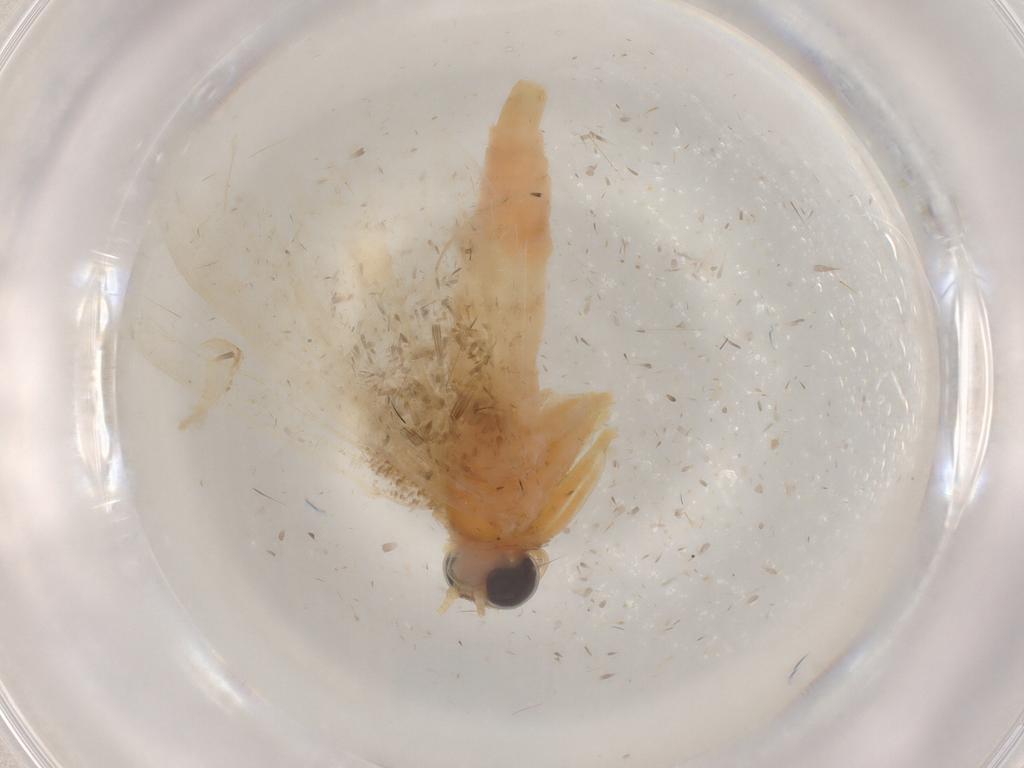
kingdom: Animalia
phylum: Arthropoda
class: Insecta
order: Lepidoptera
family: Geometridae
